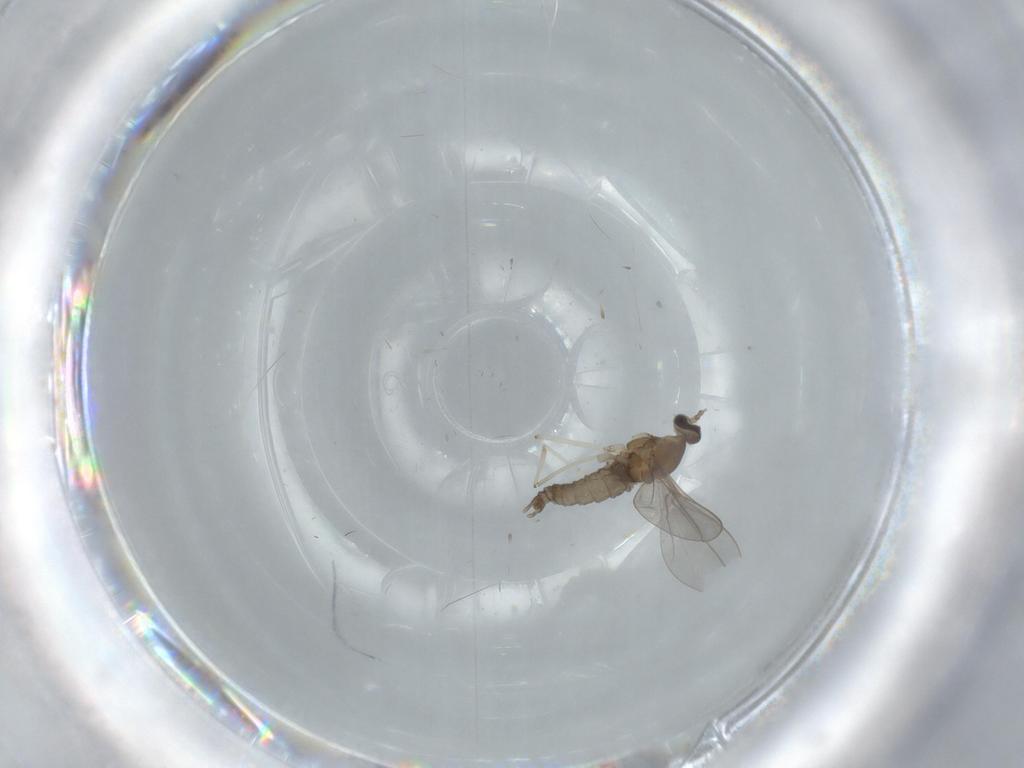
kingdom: Animalia
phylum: Arthropoda
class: Insecta
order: Diptera
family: Cecidomyiidae
